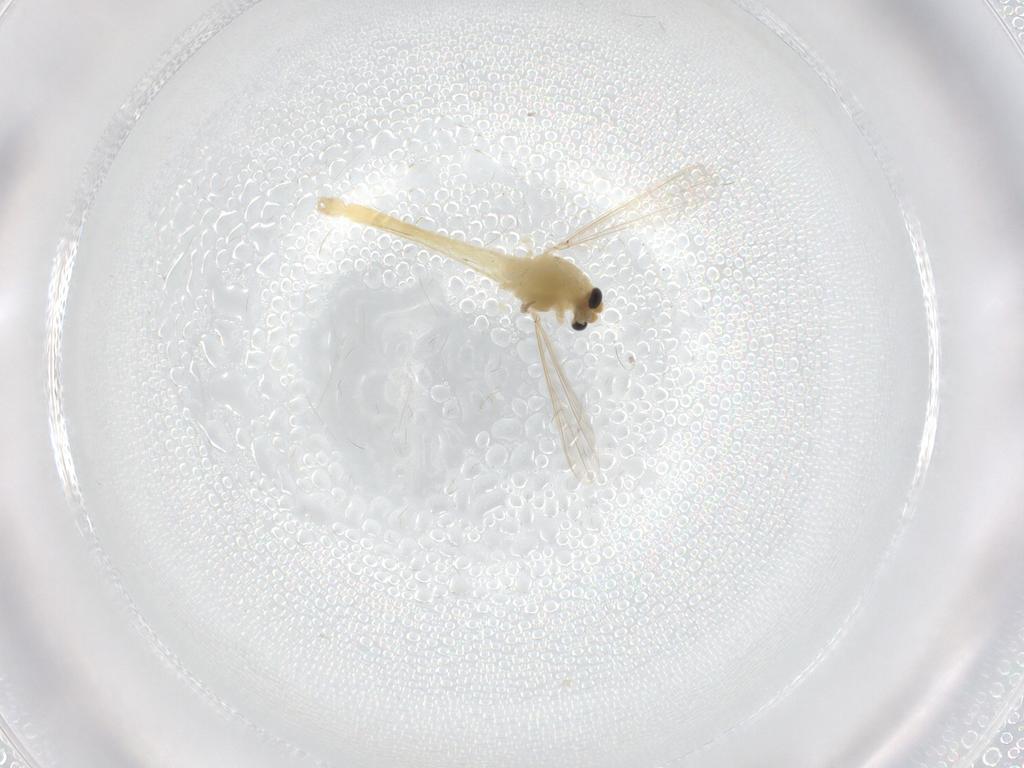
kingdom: Animalia
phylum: Arthropoda
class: Insecta
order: Diptera
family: Chironomidae
